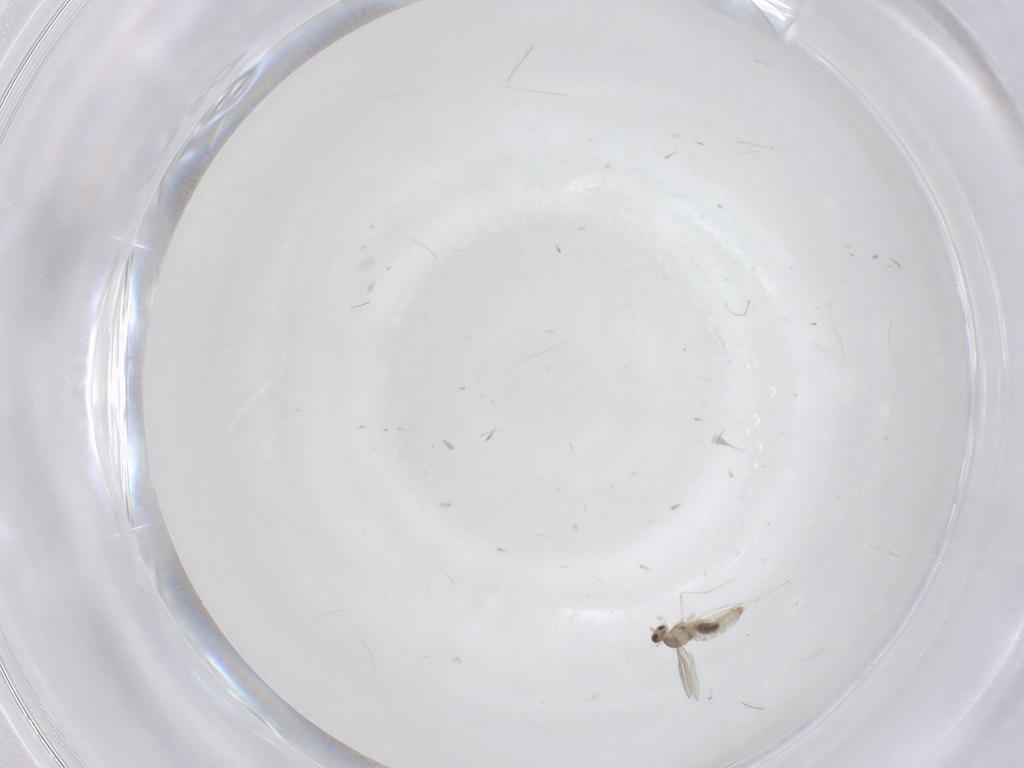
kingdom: Animalia
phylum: Arthropoda
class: Insecta
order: Diptera
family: Cecidomyiidae
